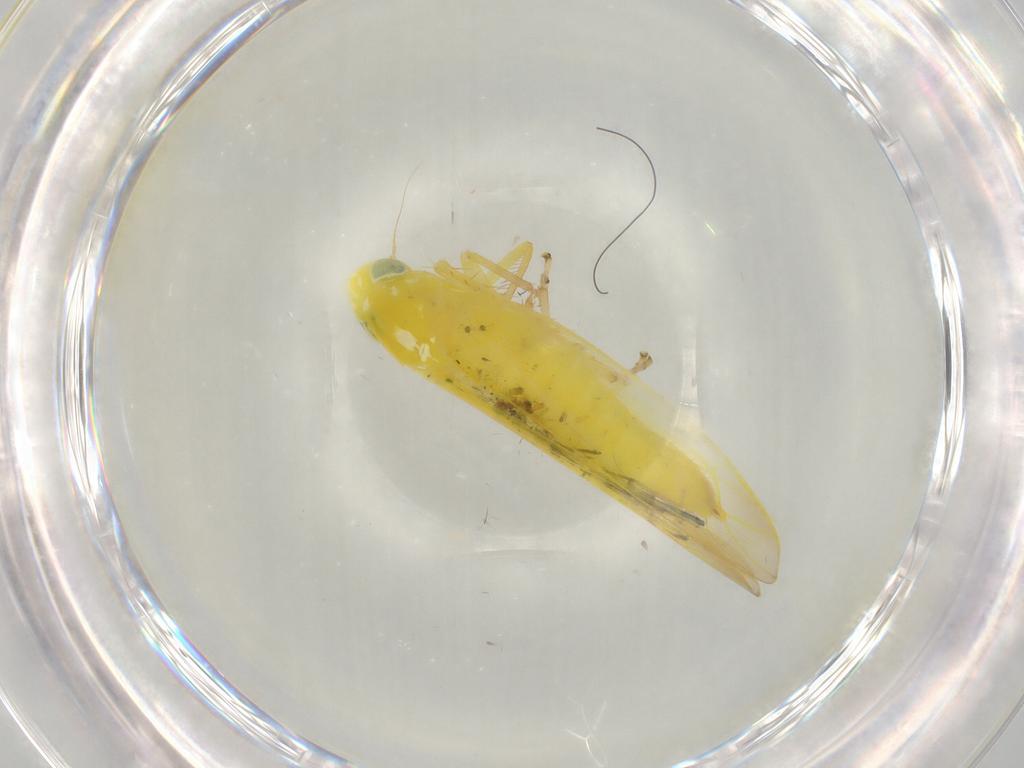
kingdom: Animalia
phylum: Arthropoda
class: Insecta
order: Hemiptera
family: Cicadellidae
